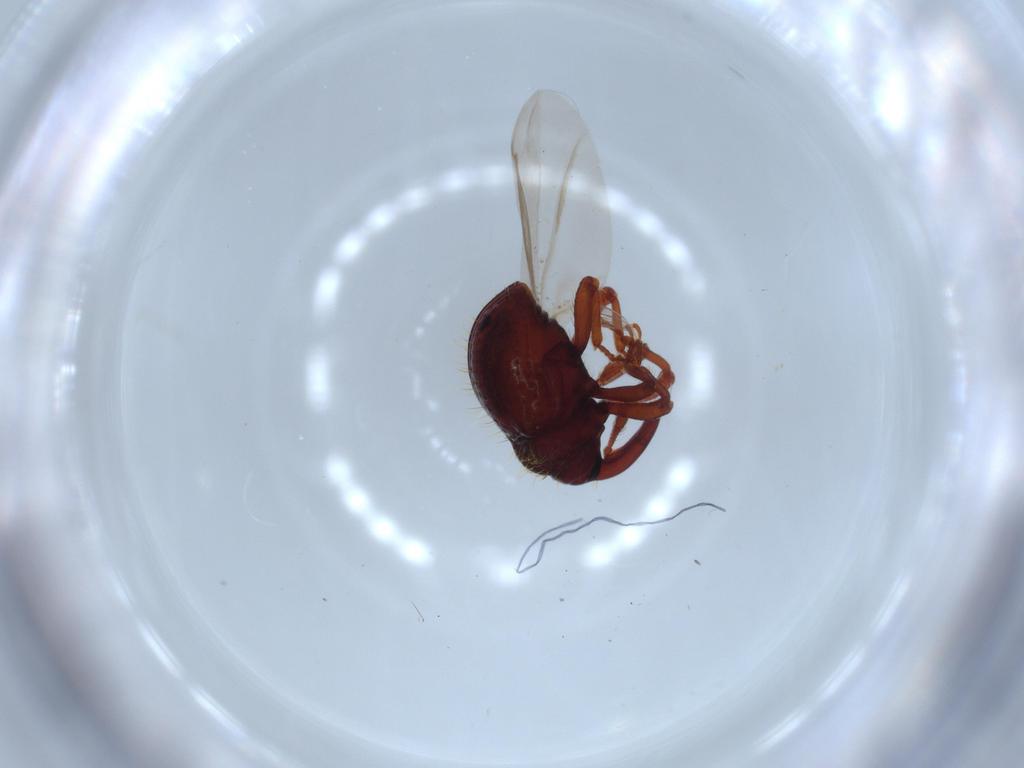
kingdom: Animalia
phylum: Arthropoda
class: Insecta
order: Coleoptera
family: Curculionidae
